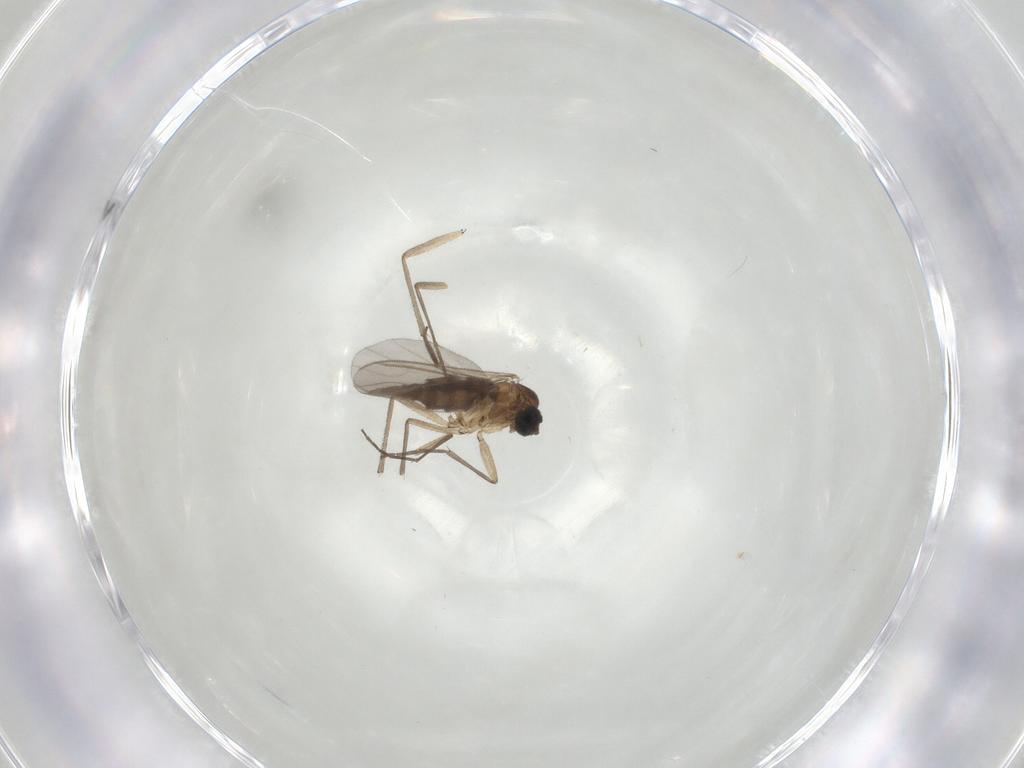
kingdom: Animalia
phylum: Arthropoda
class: Insecta
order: Diptera
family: Sciaridae
